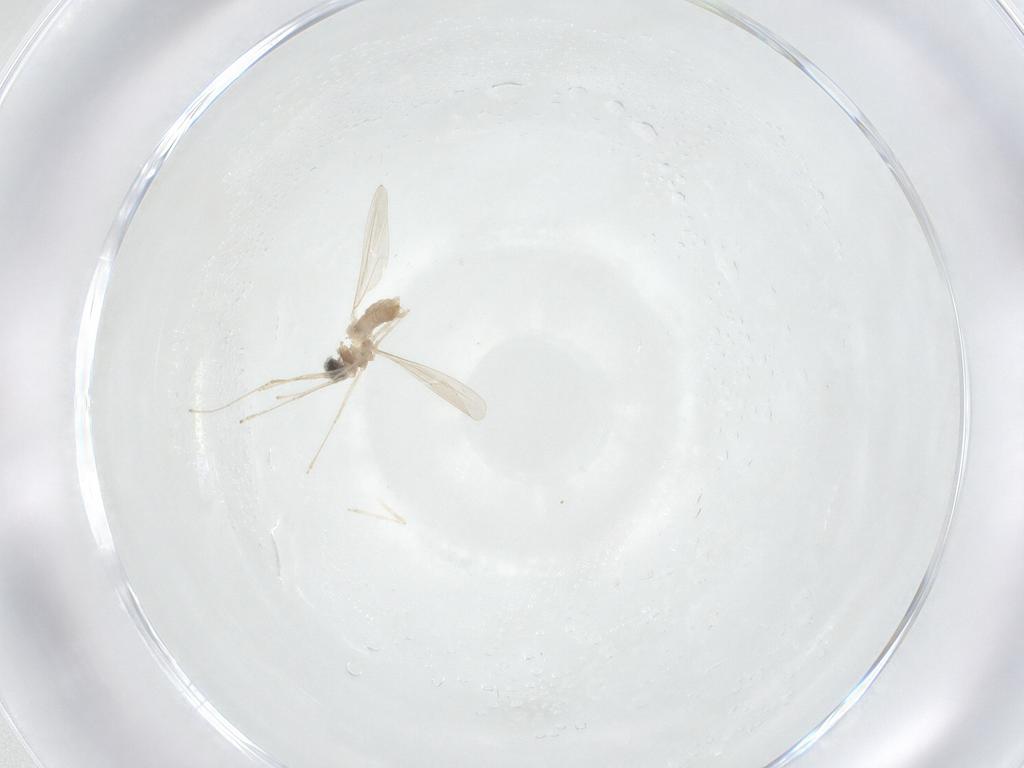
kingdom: Animalia
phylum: Arthropoda
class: Insecta
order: Diptera
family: Cecidomyiidae
